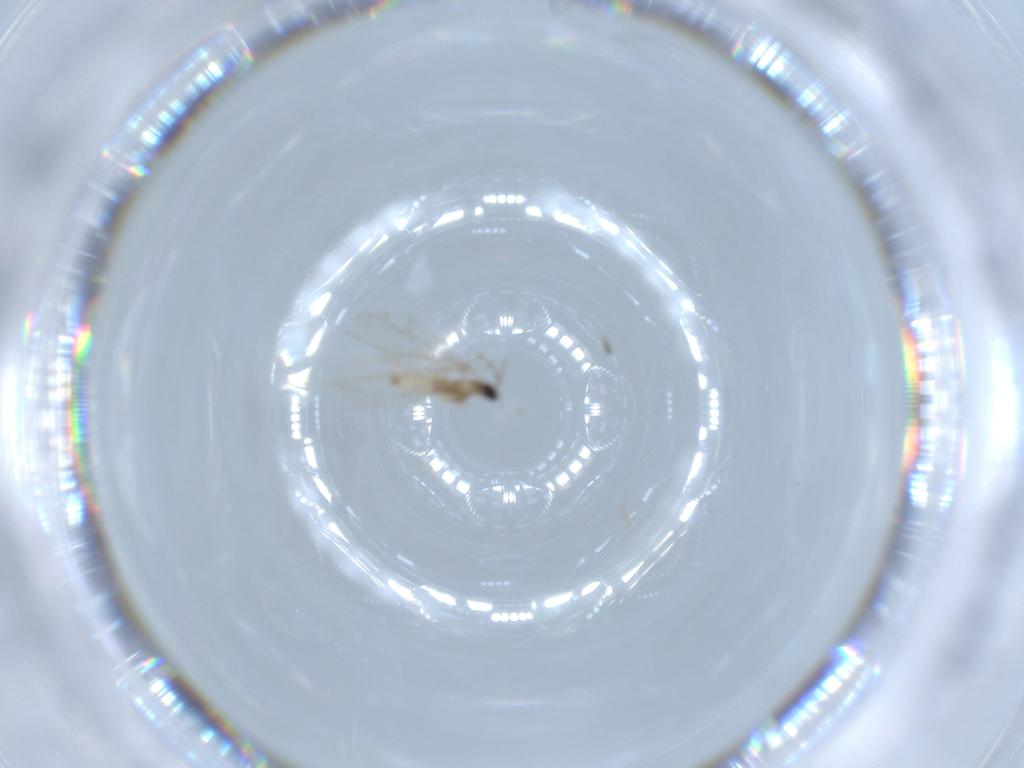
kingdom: Animalia
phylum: Arthropoda
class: Insecta
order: Diptera
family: Cecidomyiidae
